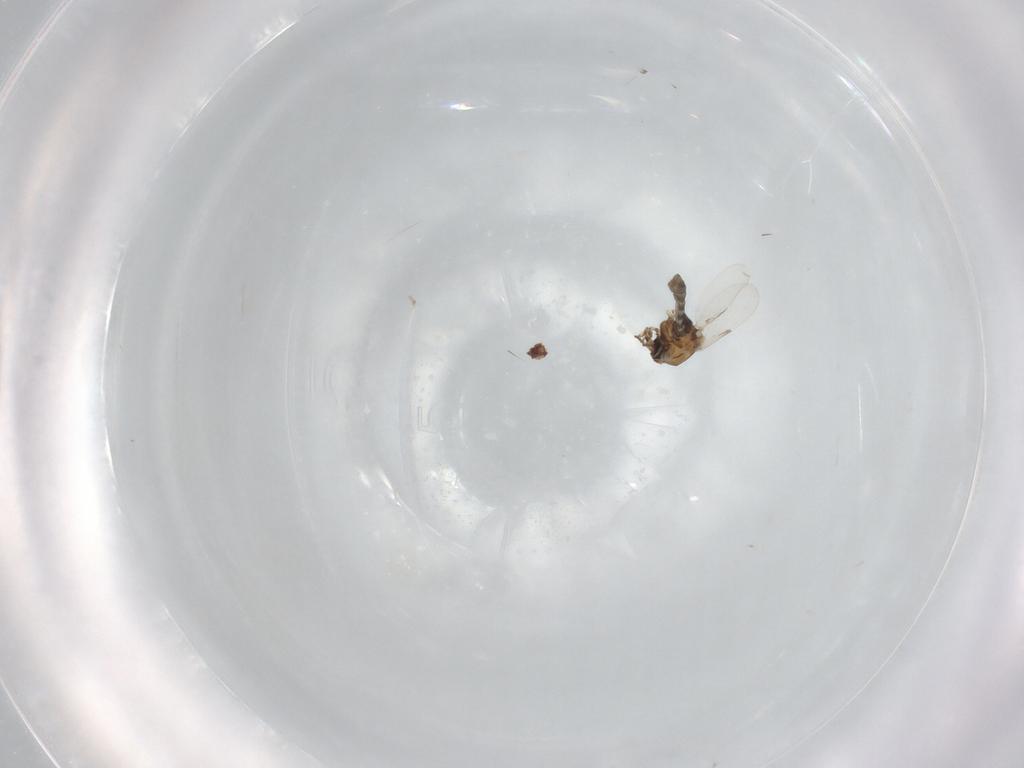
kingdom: Animalia
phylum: Arthropoda
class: Insecta
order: Diptera
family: Ceratopogonidae
